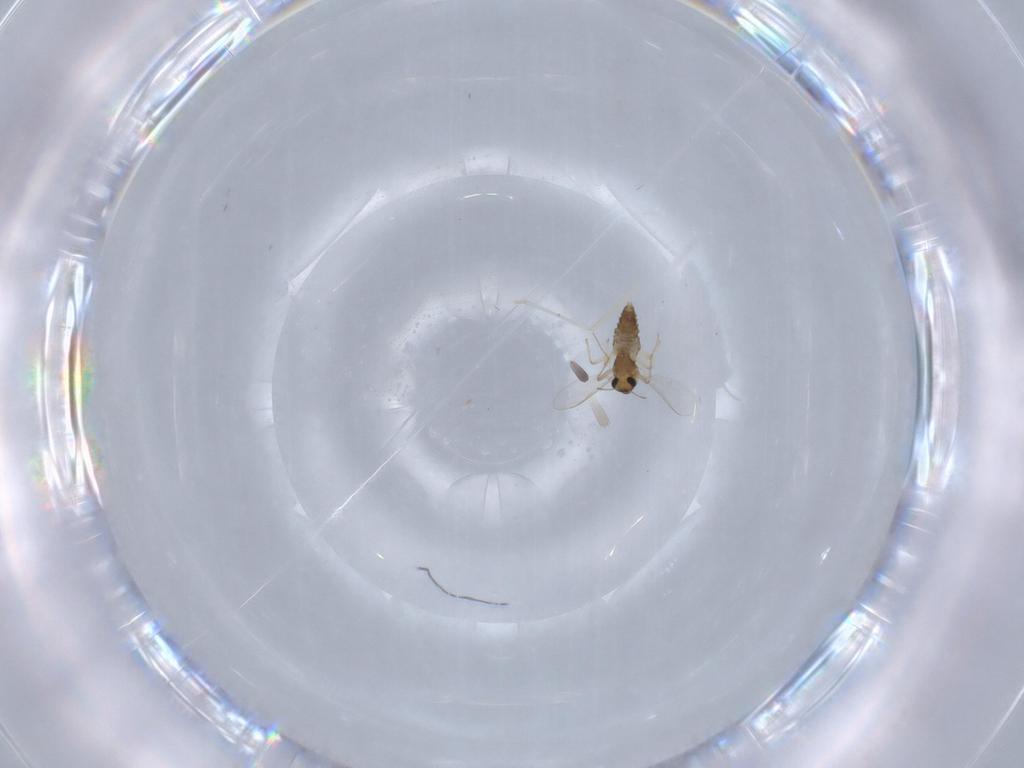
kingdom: Animalia
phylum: Arthropoda
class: Insecta
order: Diptera
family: Chironomidae
